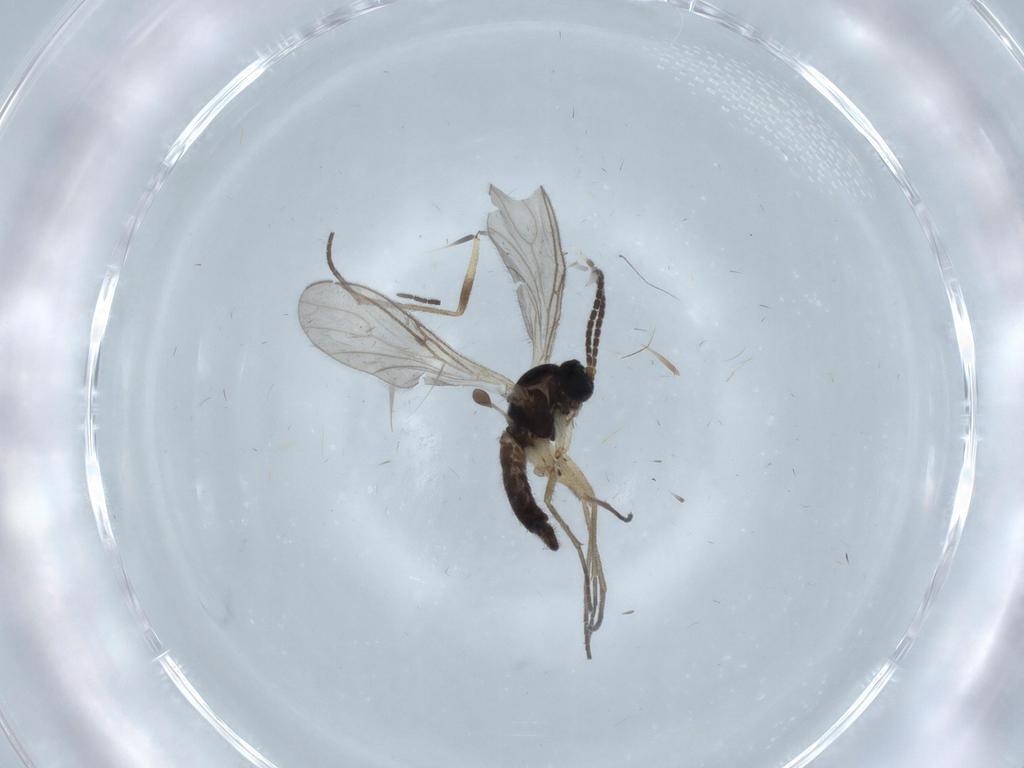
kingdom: Animalia
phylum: Arthropoda
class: Insecta
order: Diptera
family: Sciaridae
